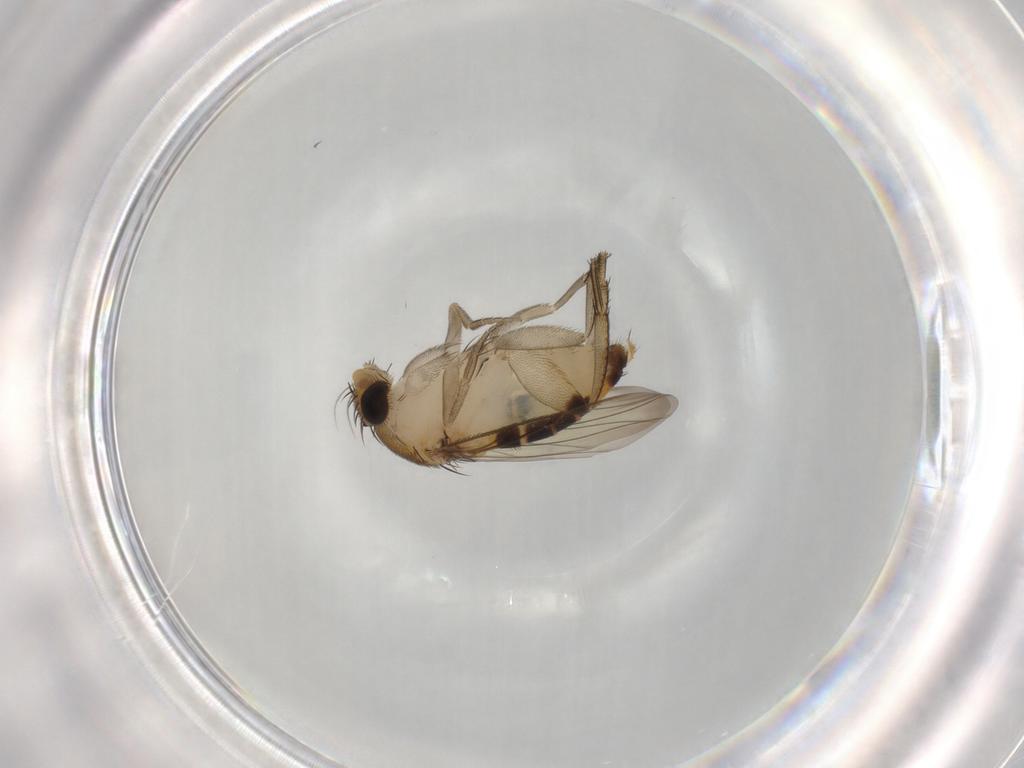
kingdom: Animalia
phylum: Arthropoda
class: Insecta
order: Diptera
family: Phoridae
